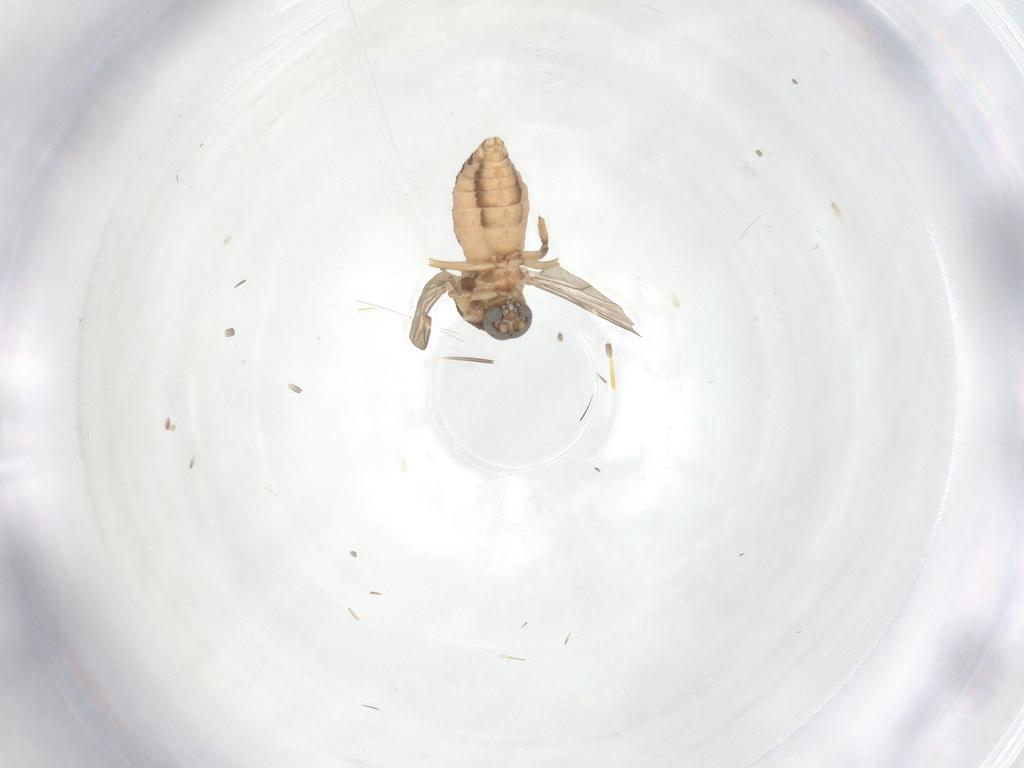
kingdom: Animalia
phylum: Arthropoda
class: Insecta
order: Diptera
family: Ceratopogonidae
